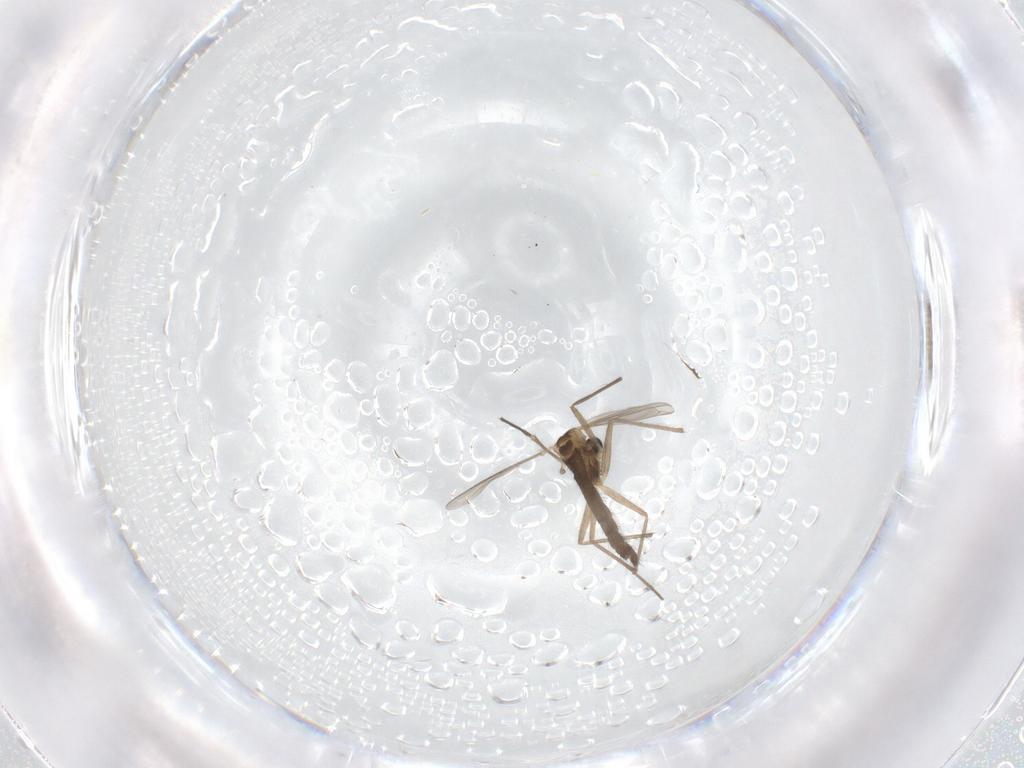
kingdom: Animalia
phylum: Arthropoda
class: Insecta
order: Diptera
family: Chironomidae
